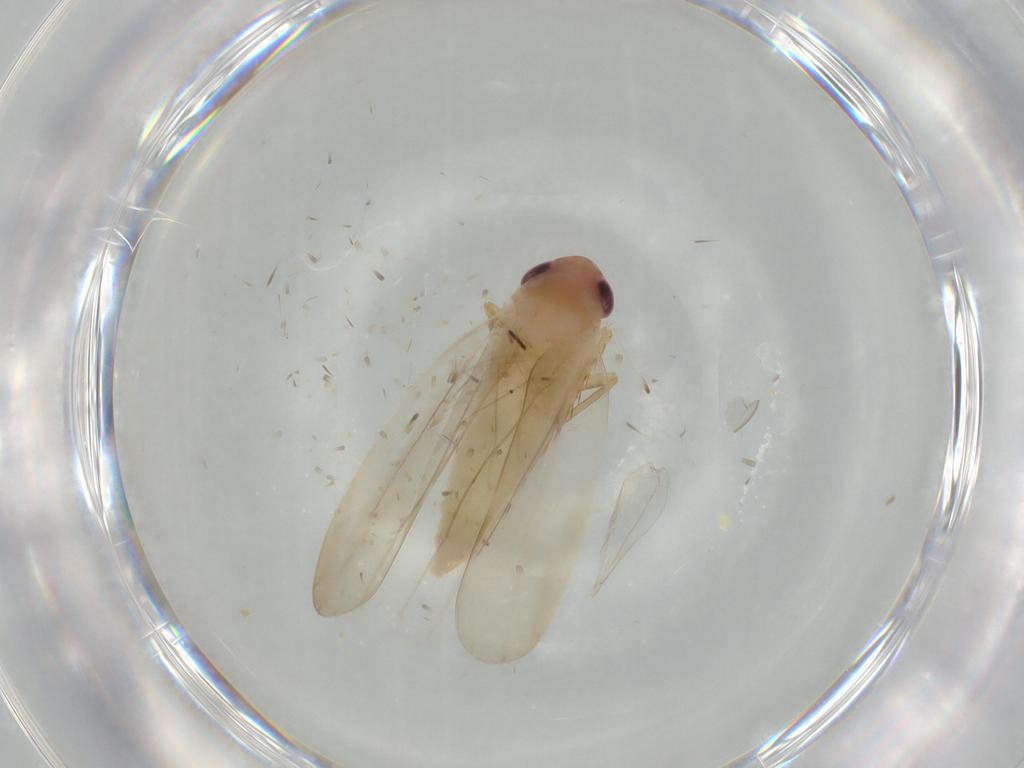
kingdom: Animalia
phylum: Arthropoda
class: Insecta
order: Hemiptera
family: Cicadellidae
